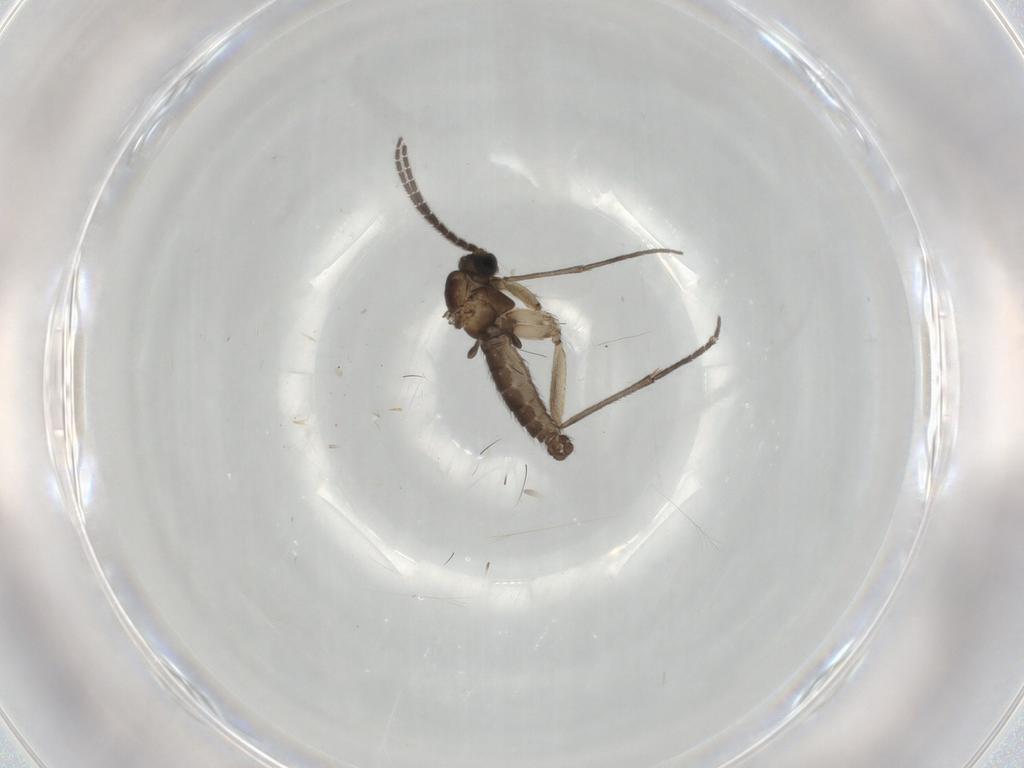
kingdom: Animalia
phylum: Arthropoda
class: Insecta
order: Diptera
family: Sciaridae
